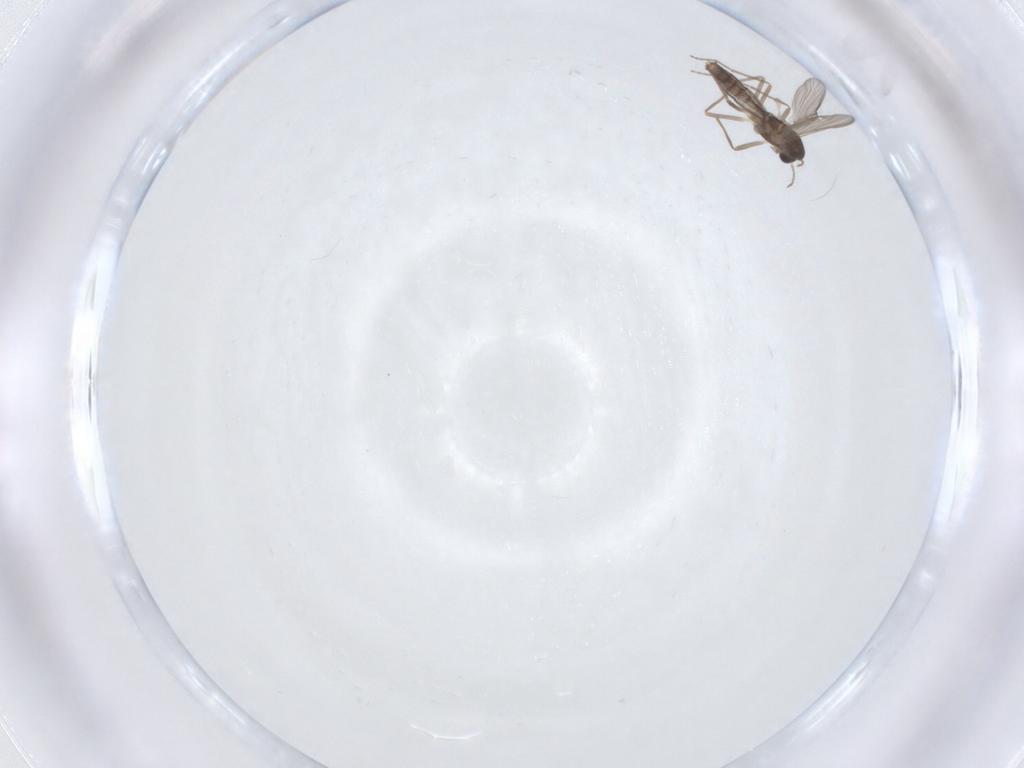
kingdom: Animalia
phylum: Arthropoda
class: Insecta
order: Diptera
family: Chironomidae
